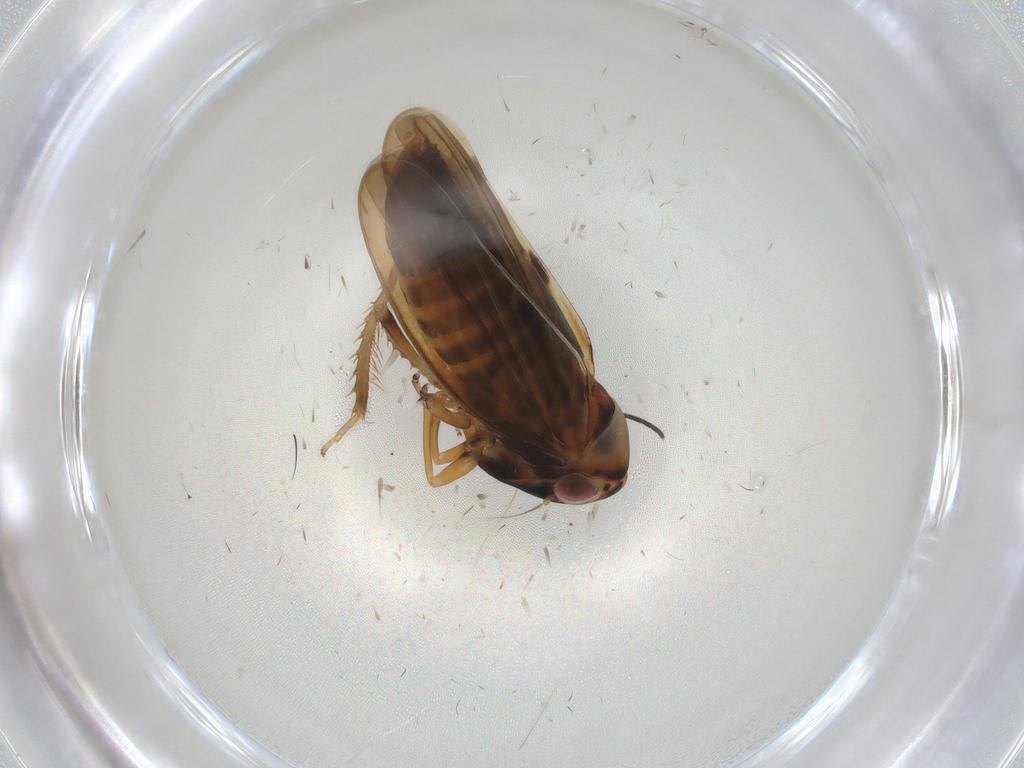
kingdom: Animalia
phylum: Arthropoda
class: Insecta
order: Hemiptera
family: Cicadellidae
